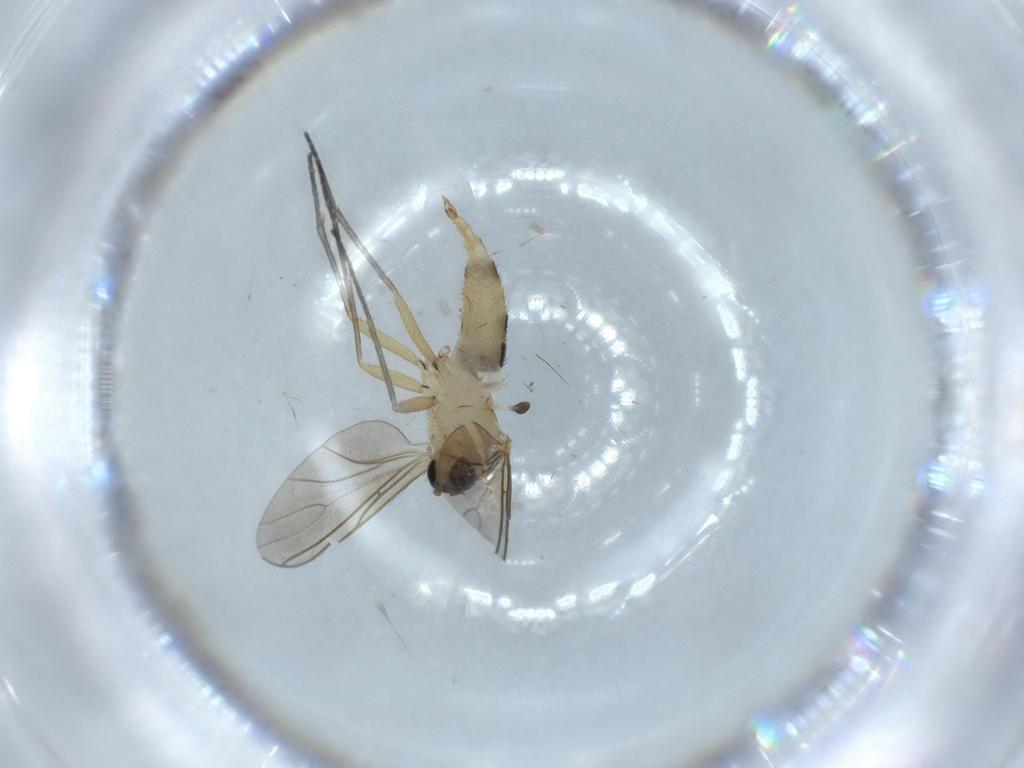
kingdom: Animalia
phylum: Arthropoda
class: Insecta
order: Diptera
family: Sciaridae
